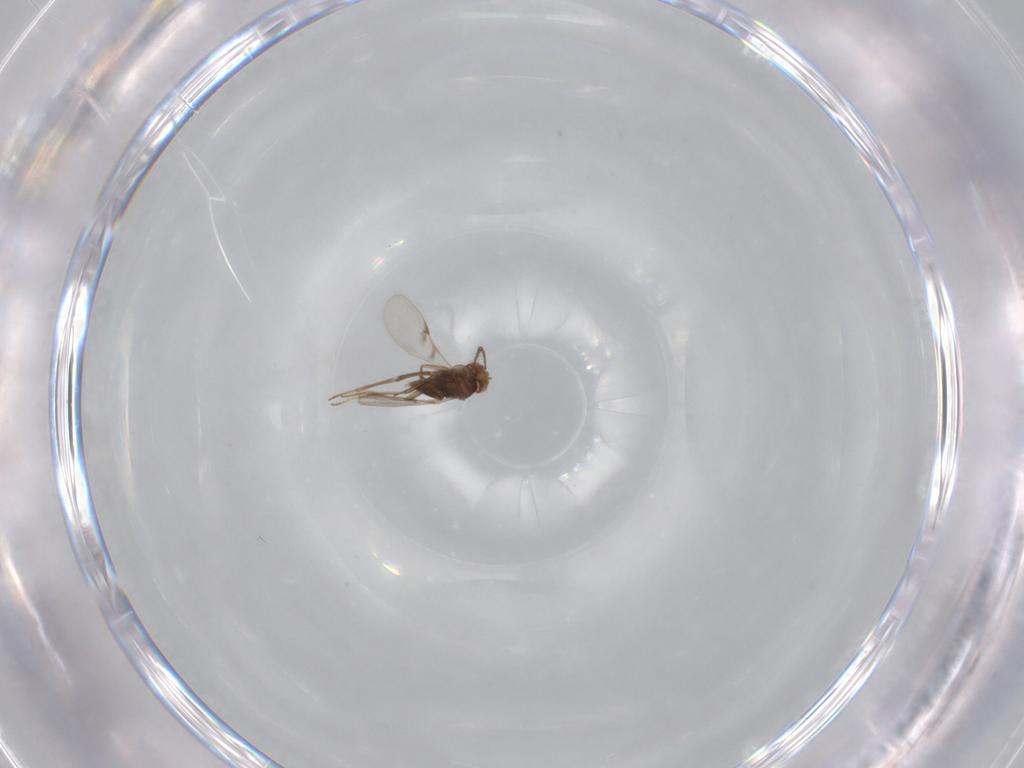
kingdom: Animalia
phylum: Arthropoda
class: Insecta
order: Hymenoptera
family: Ichneumonidae
